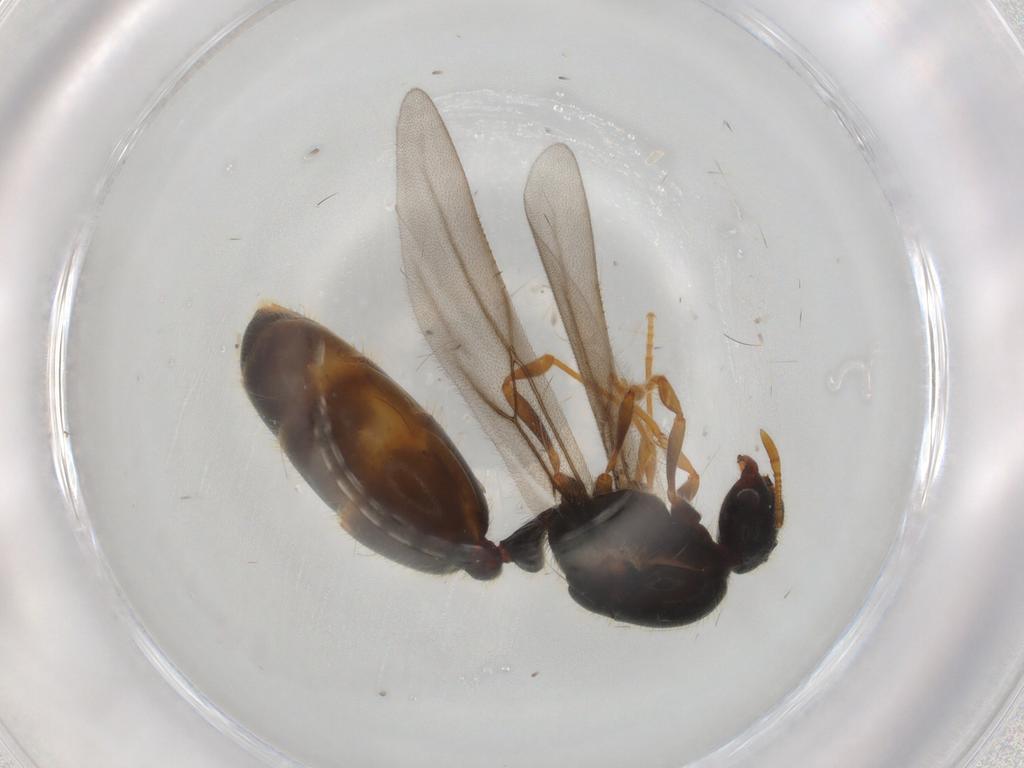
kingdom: Animalia
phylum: Arthropoda
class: Insecta
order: Hymenoptera
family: Formicidae
